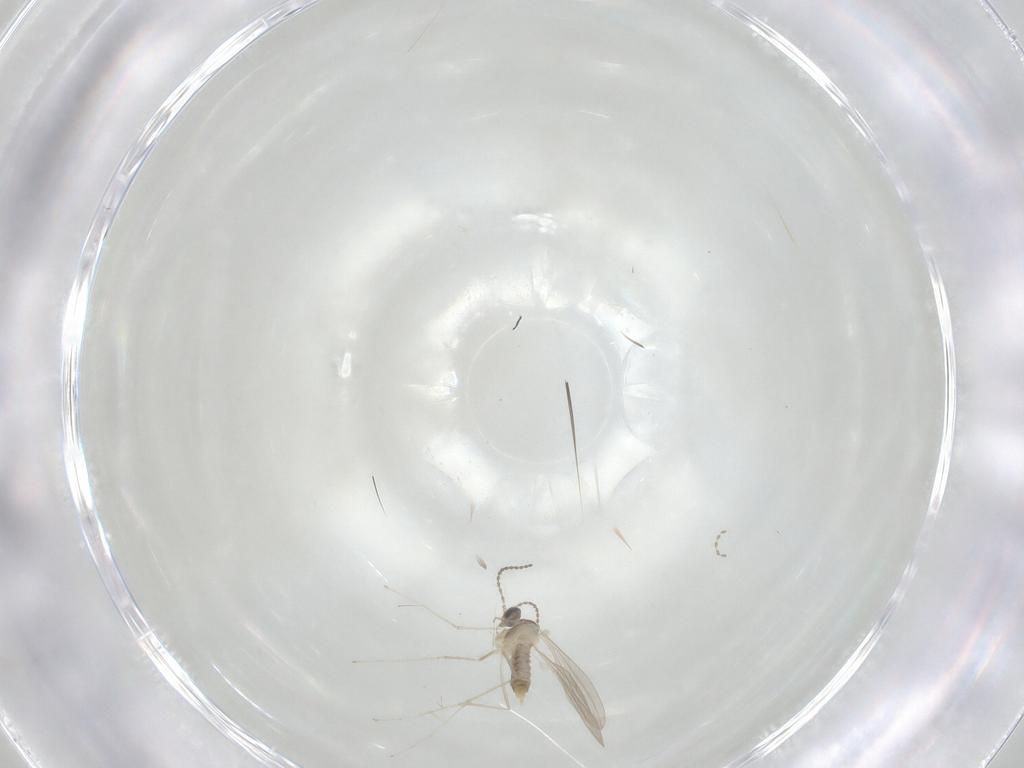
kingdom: Animalia
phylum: Arthropoda
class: Insecta
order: Diptera
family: Cecidomyiidae
